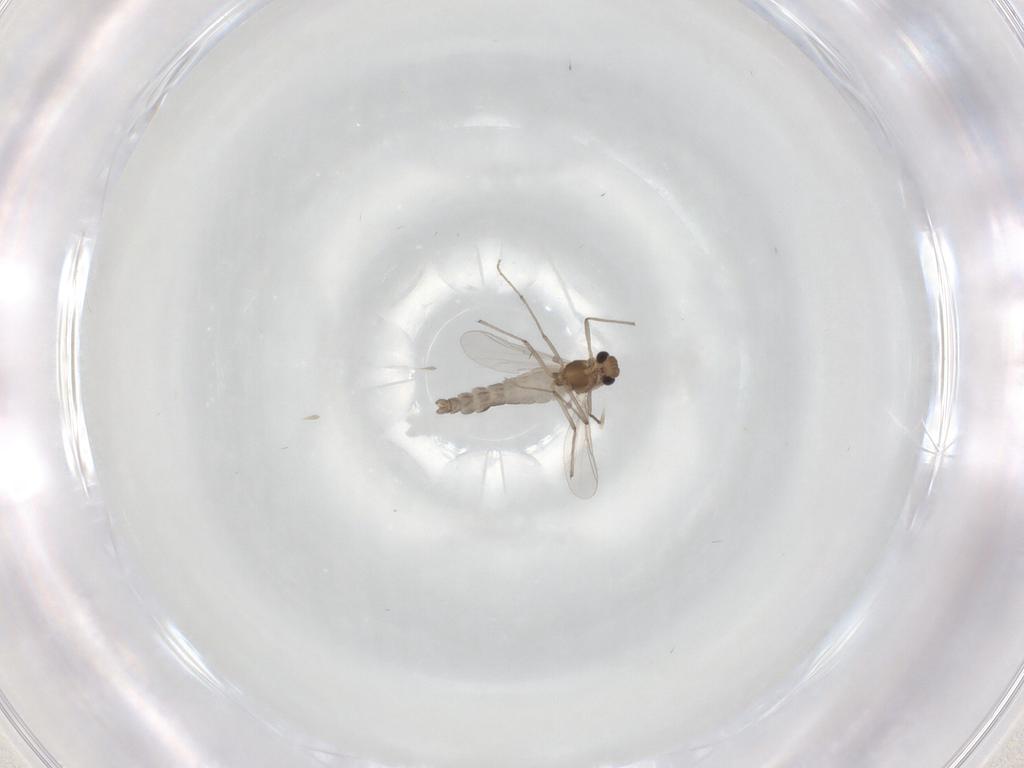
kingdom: Animalia
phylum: Arthropoda
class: Insecta
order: Diptera
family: Chironomidae
